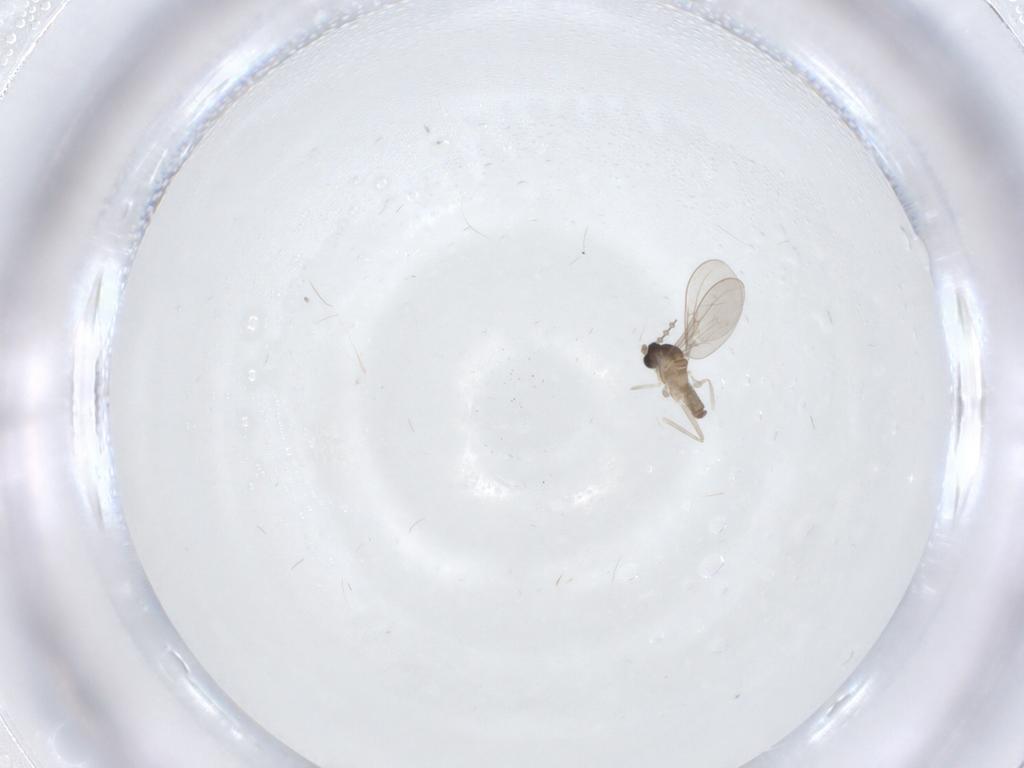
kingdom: Animalia
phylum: Arthropoda
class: Insecta
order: Diptera
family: Cecidomyiidae
